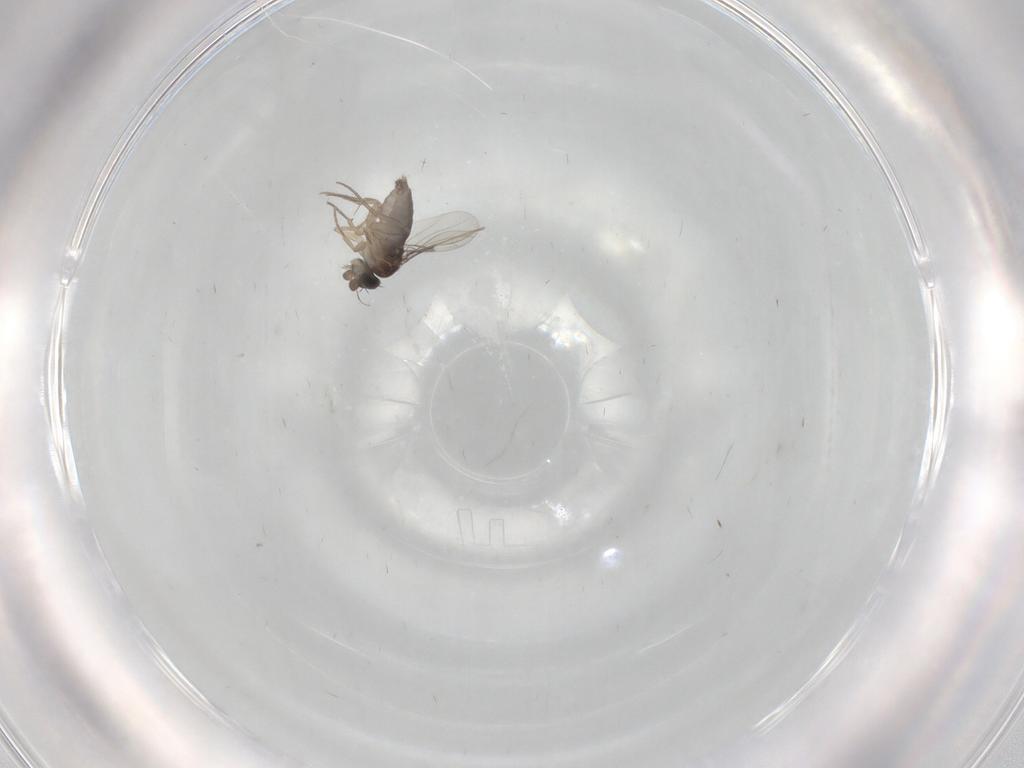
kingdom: Animalia
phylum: Arthropoda
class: Insecta
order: Diptera
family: Phoridae
